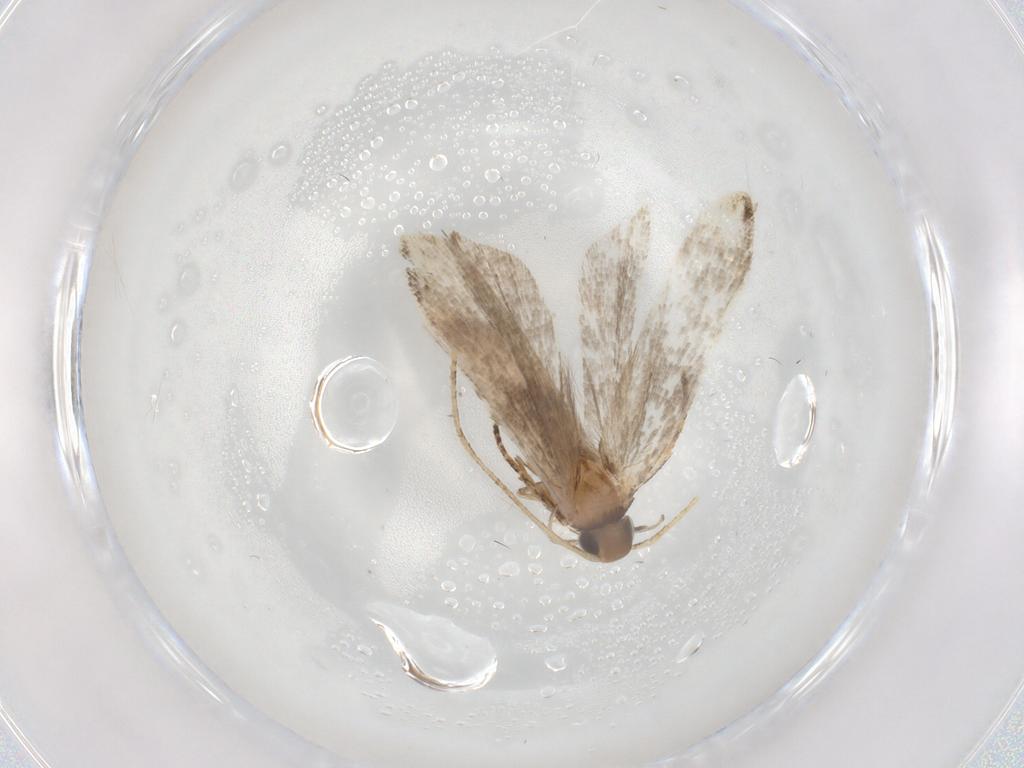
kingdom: Animalia
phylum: Arthropoda
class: Insecta
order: Lepidoptera
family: Gelechiidae
